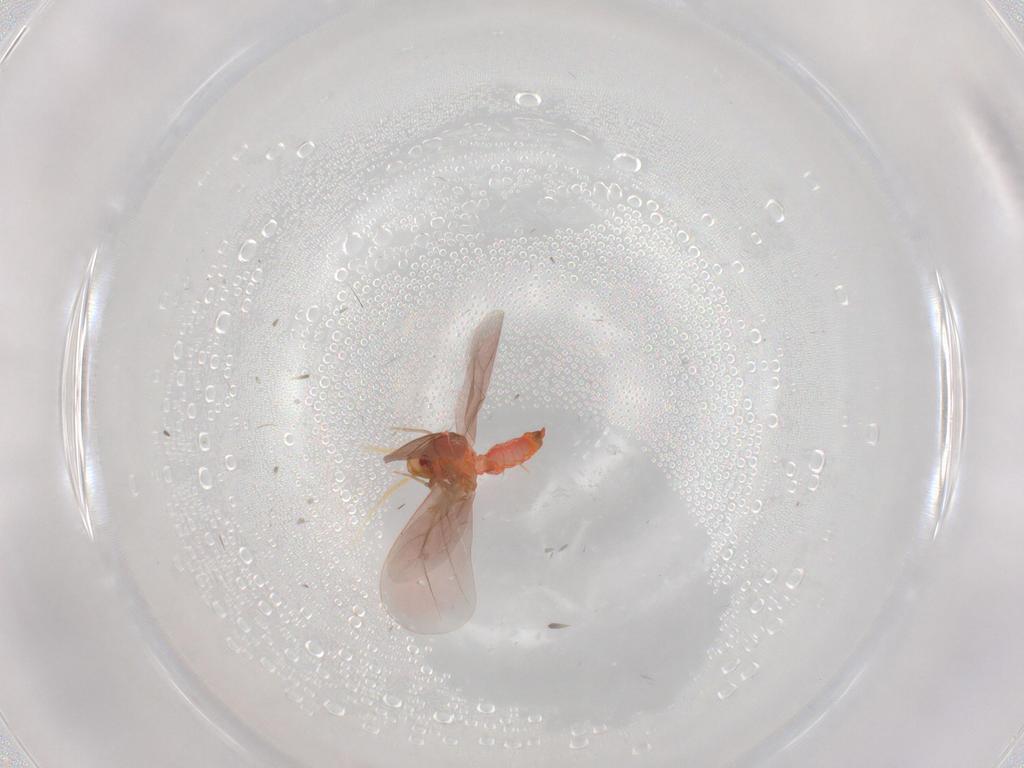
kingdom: Animalia
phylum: Arthropoda
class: Insecta
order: Hemiptera
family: Aleyrodidae
